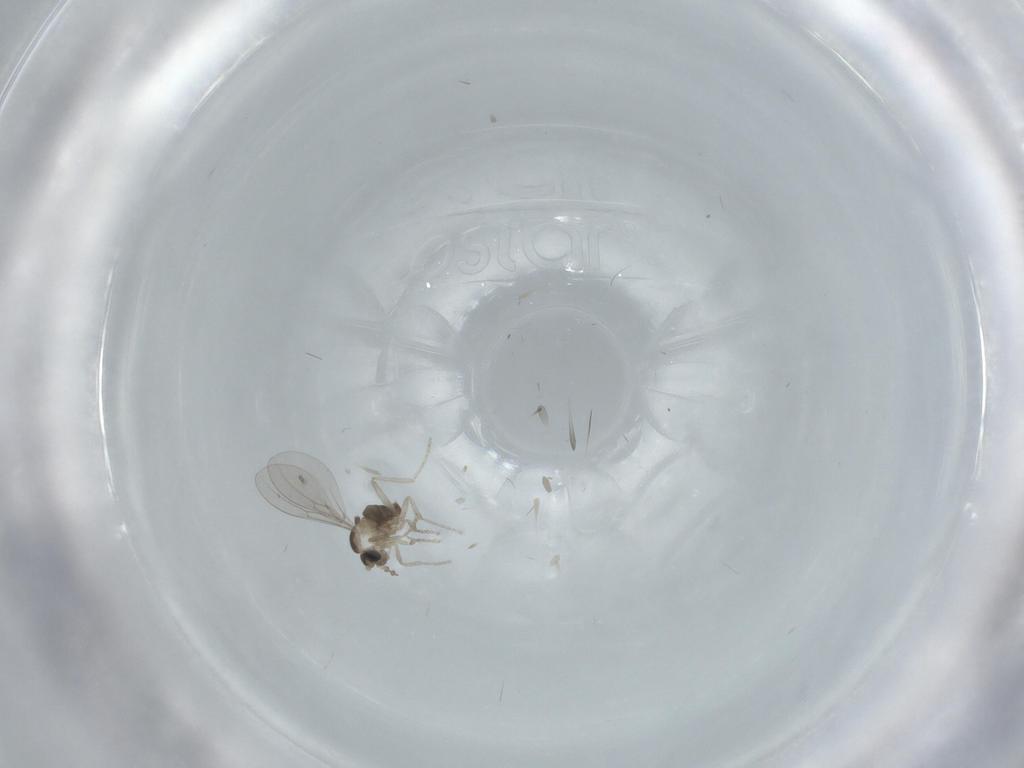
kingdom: Animalia
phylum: Arthropoda
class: Insecta
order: Diptera
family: Cecidomyiidae
